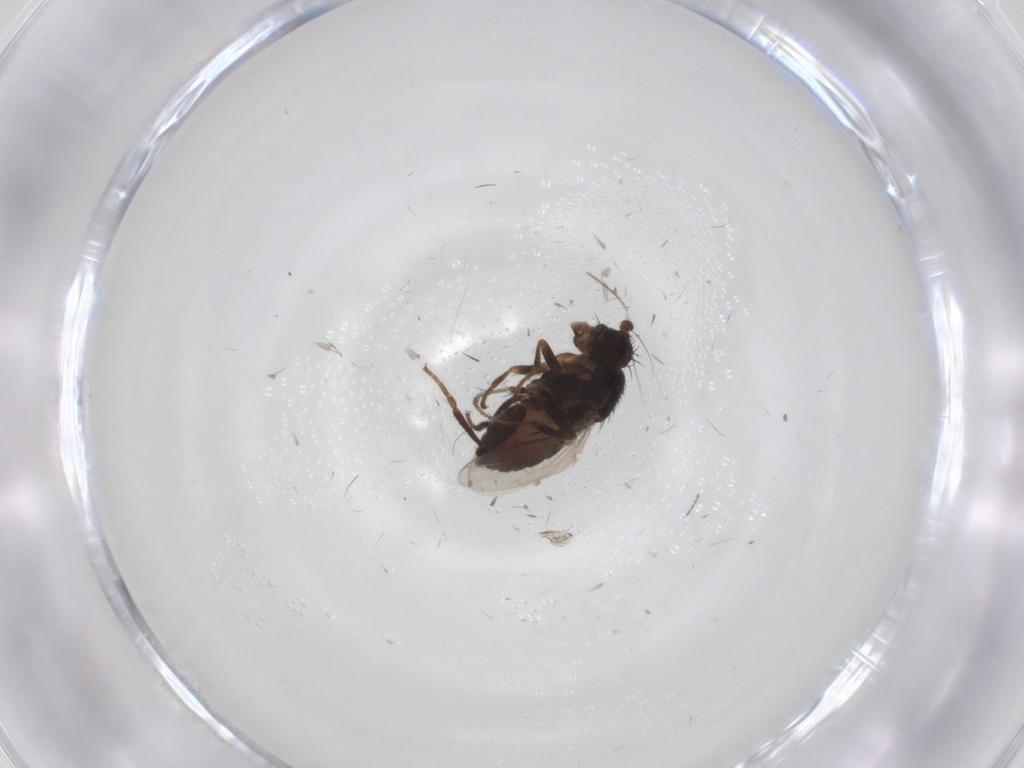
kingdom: Animalia
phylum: Arthropoda
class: Insecta
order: Diptera
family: Sphaeroceridae
